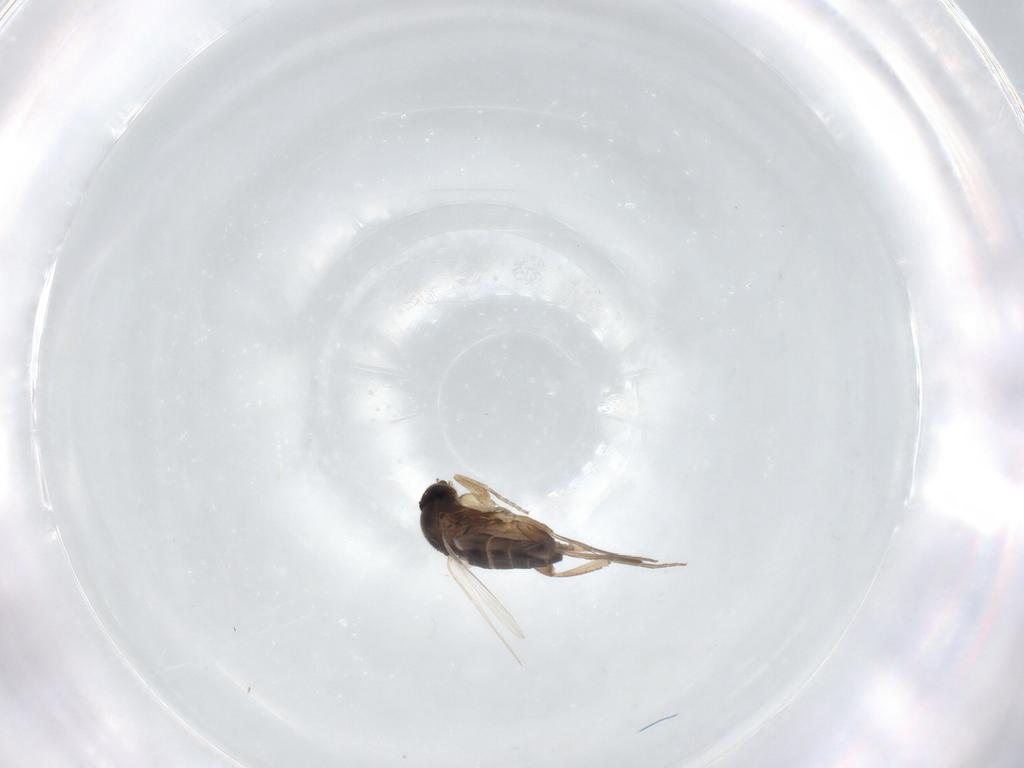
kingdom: Animalia
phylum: Arthropoda
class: Insecta
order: Diptera
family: Phoridae
